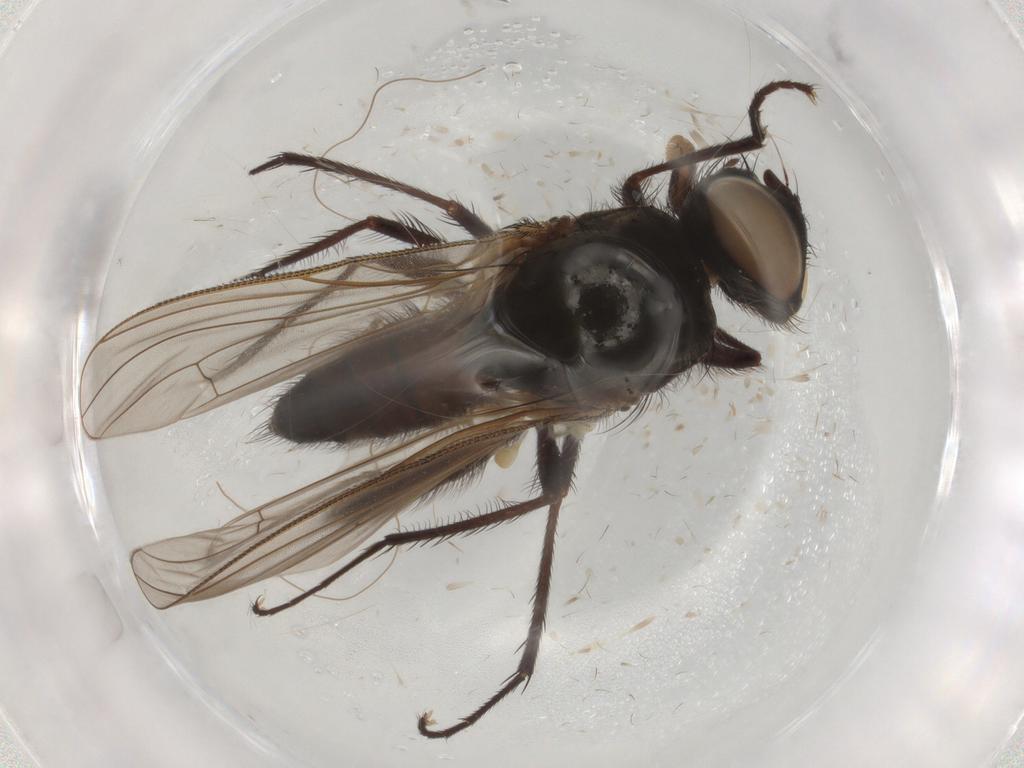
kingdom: Animalia
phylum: Arthropoda
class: Insecta
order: Diptera
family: Anthomyiidae
